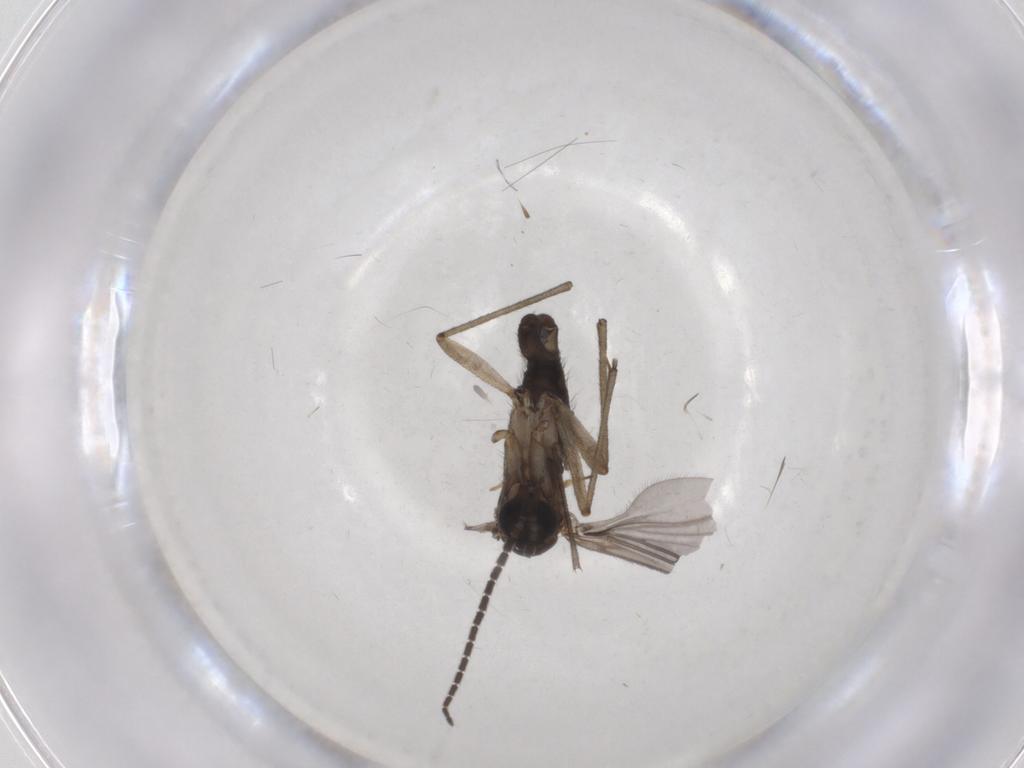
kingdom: Animalia
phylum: Arthropoda
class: Insecta
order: Diptera
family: Sciaridae
